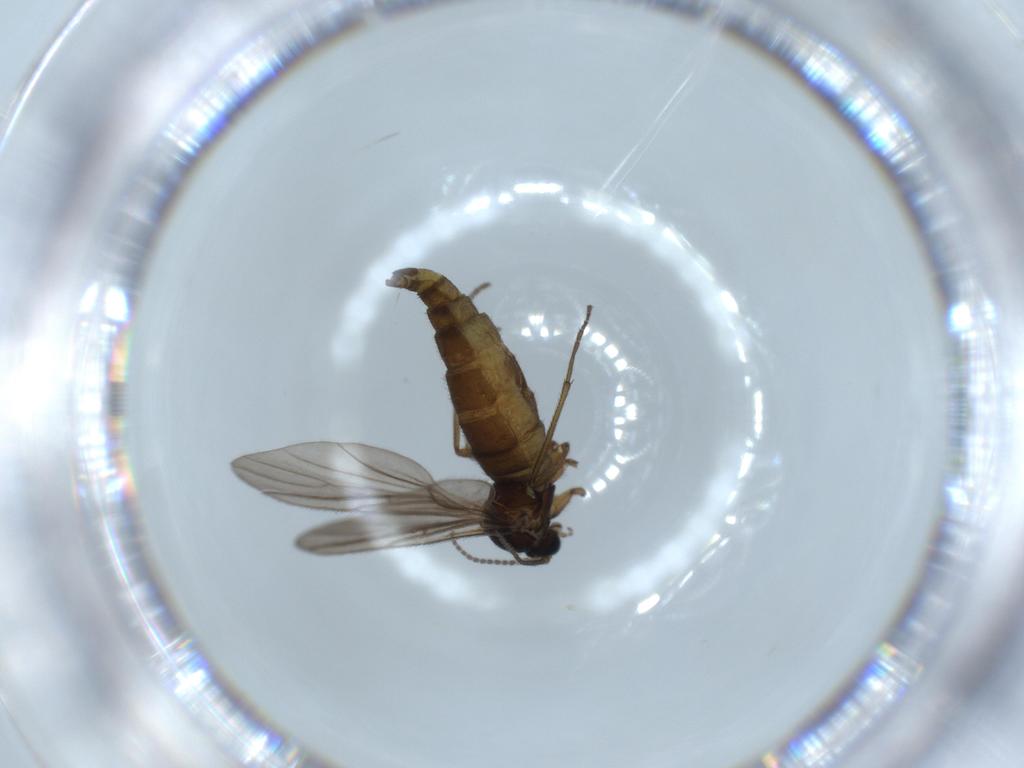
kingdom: Animalia
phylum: Arthropoda
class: Insecta
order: Diptera
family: Sciaridae
